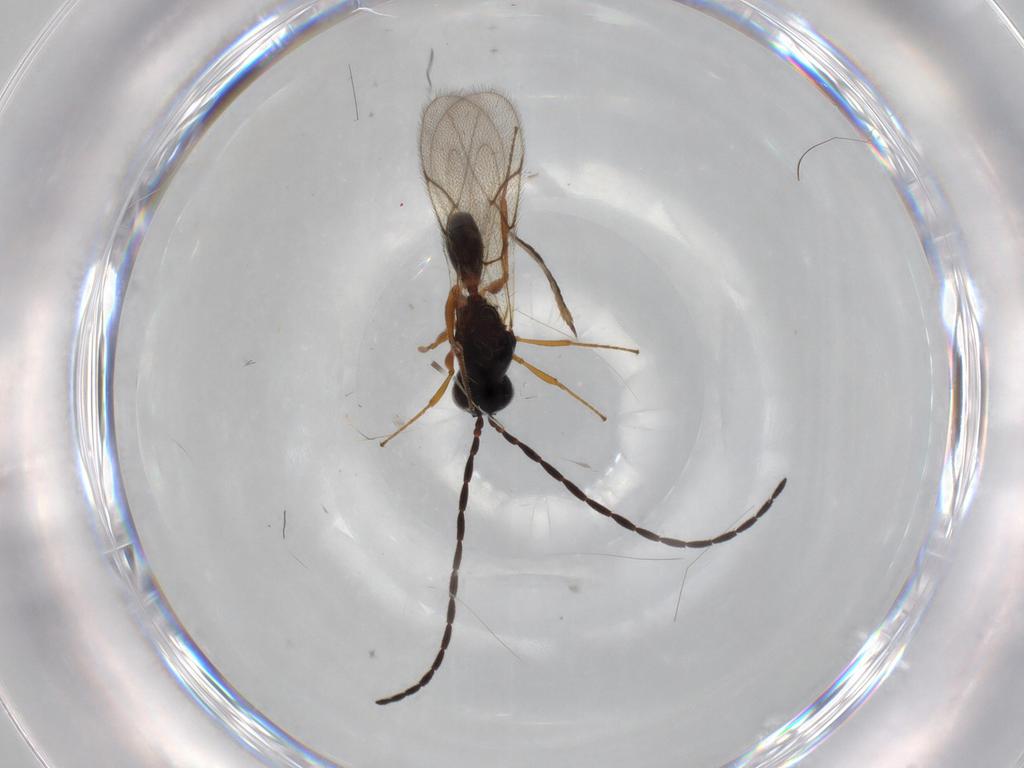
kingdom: Animalia
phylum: Arthropoda
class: Insecta
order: Hymenoptera
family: Figitidae
